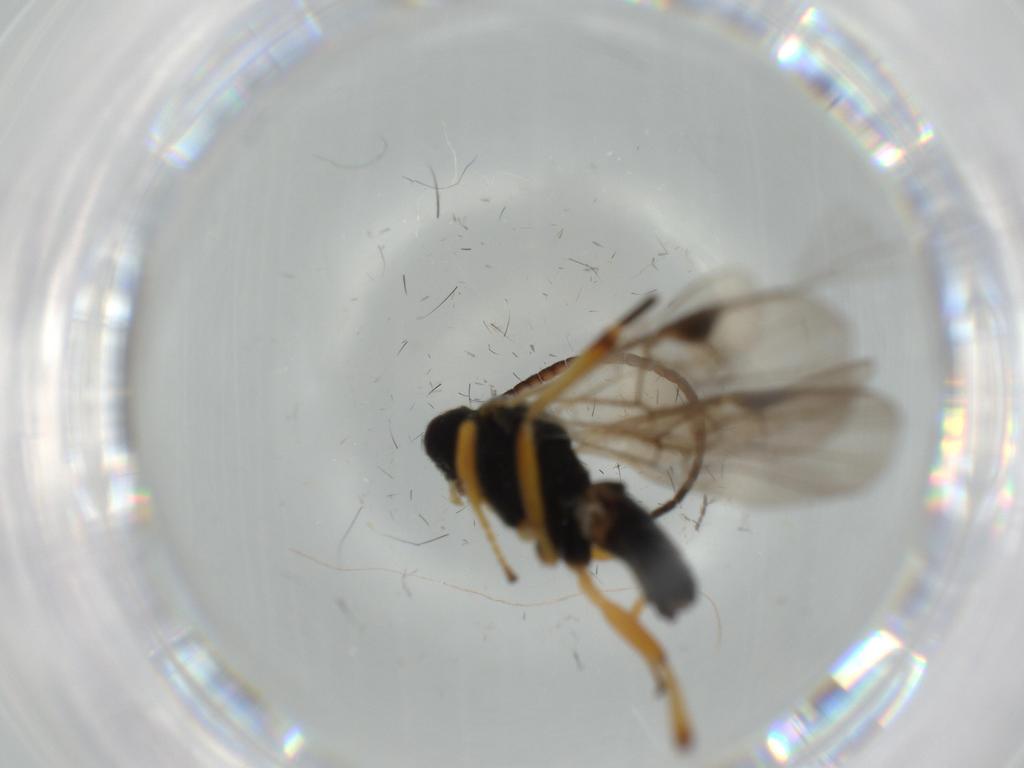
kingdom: Animalia
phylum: Arthropoda
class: Insecta
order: Hymenoptera
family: Braconidae
